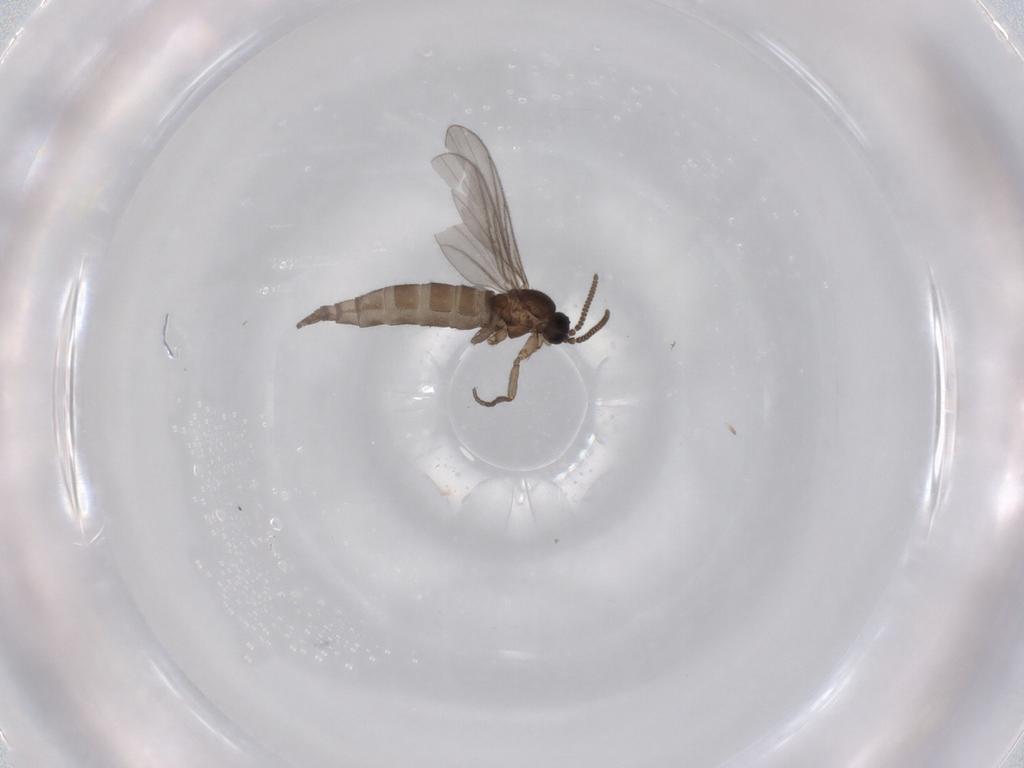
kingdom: Animalia
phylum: Arthropoda
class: Insecta
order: Diptera
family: Sciaridae
